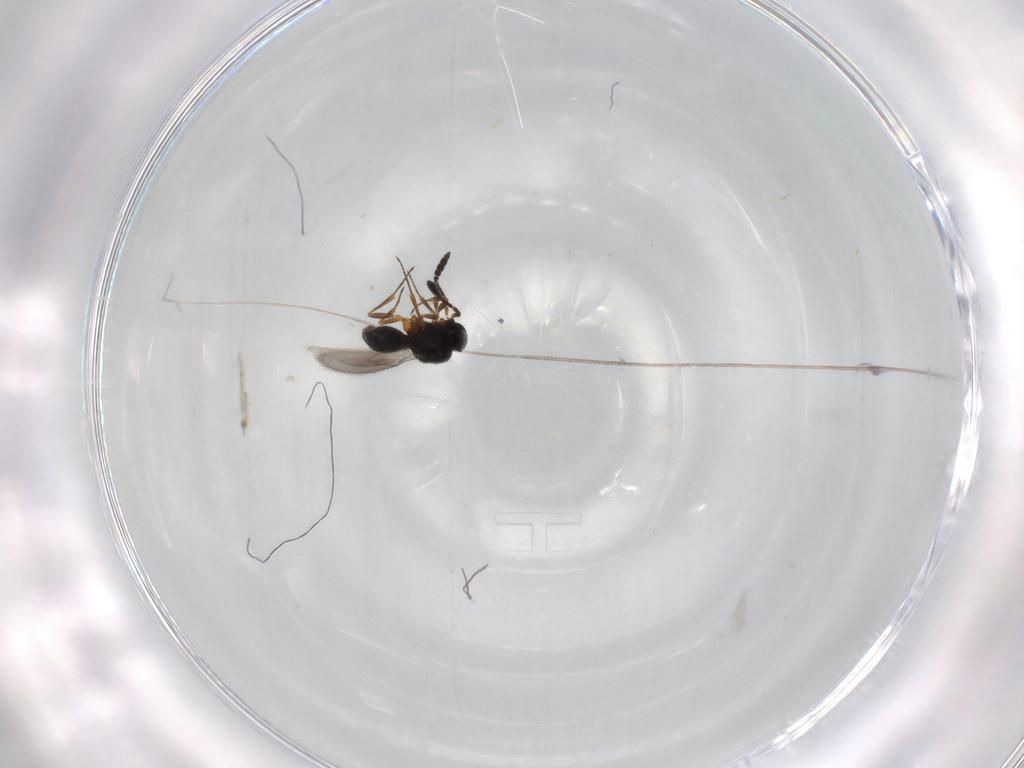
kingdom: Animalia
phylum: Arthropoda
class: Insecta
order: Hymenoptera
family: Scelionidae
